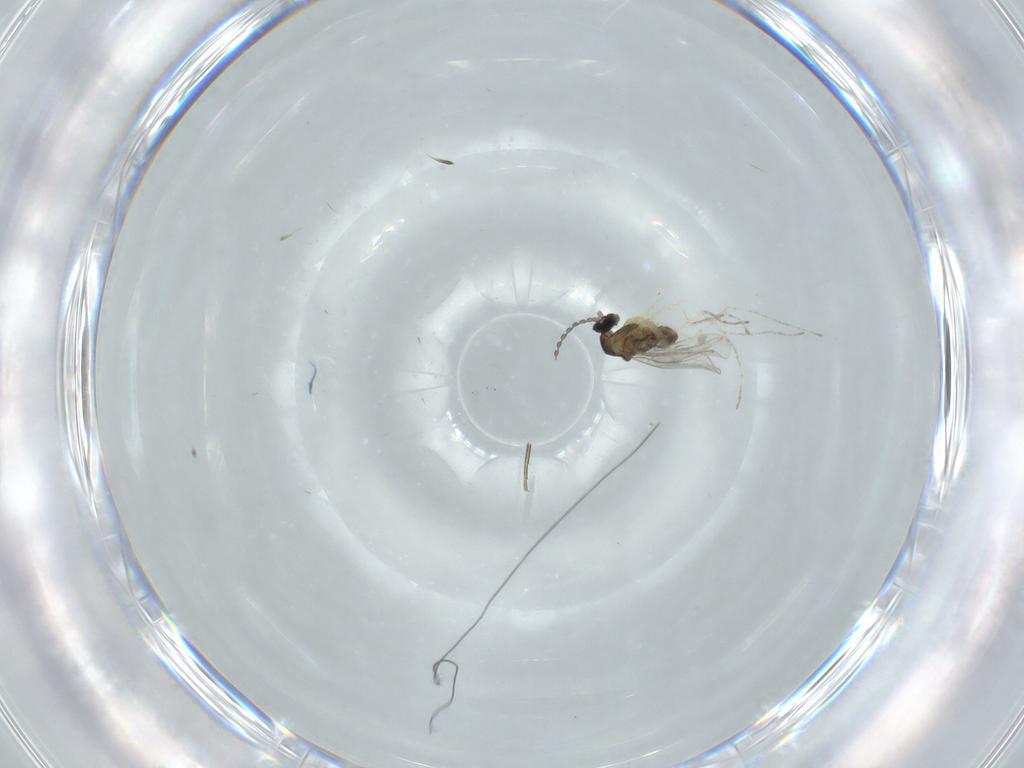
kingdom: Animalia
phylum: Arthropoda
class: Insecta
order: Diptera
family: Cecidomyiidae
